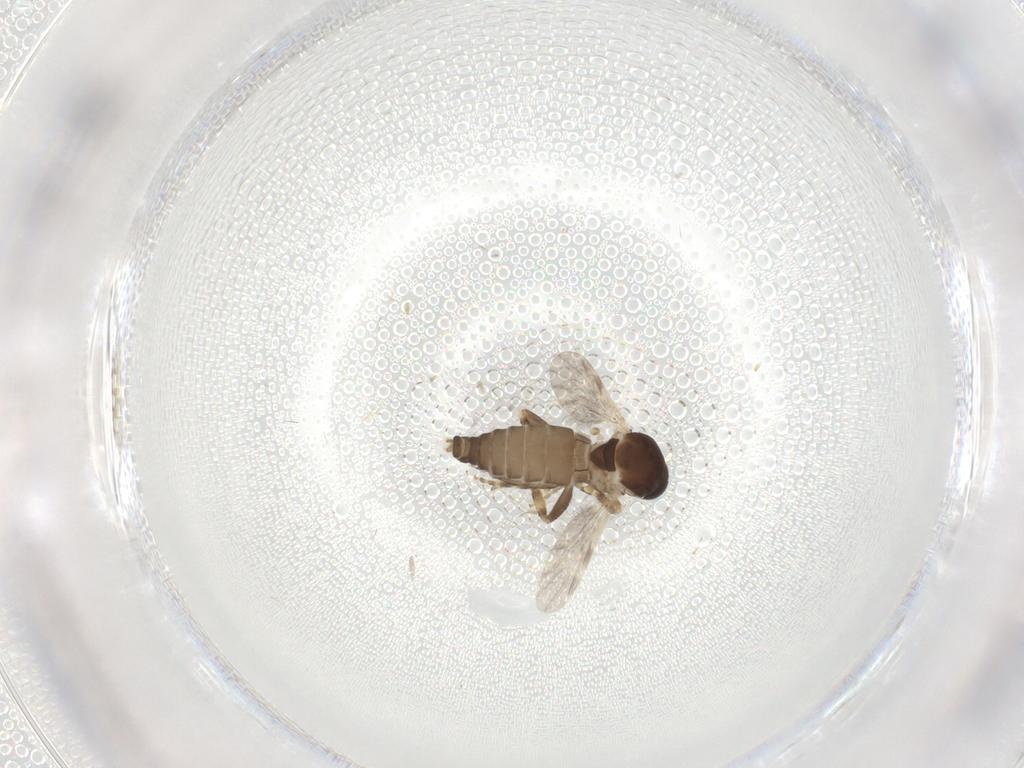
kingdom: Animalia
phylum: Arthropoda
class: Insecta
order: Diptera
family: Ceratopogonidae
